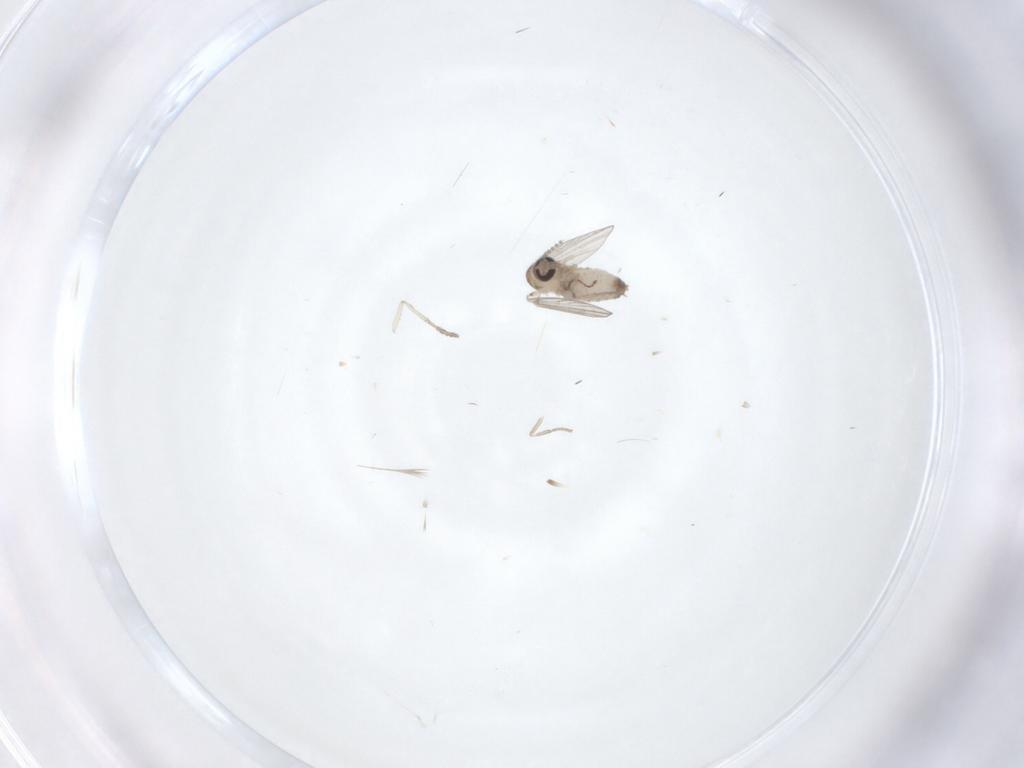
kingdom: Animalia
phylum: Arthropoda
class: Insecta
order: Diptera
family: Psychodidae
